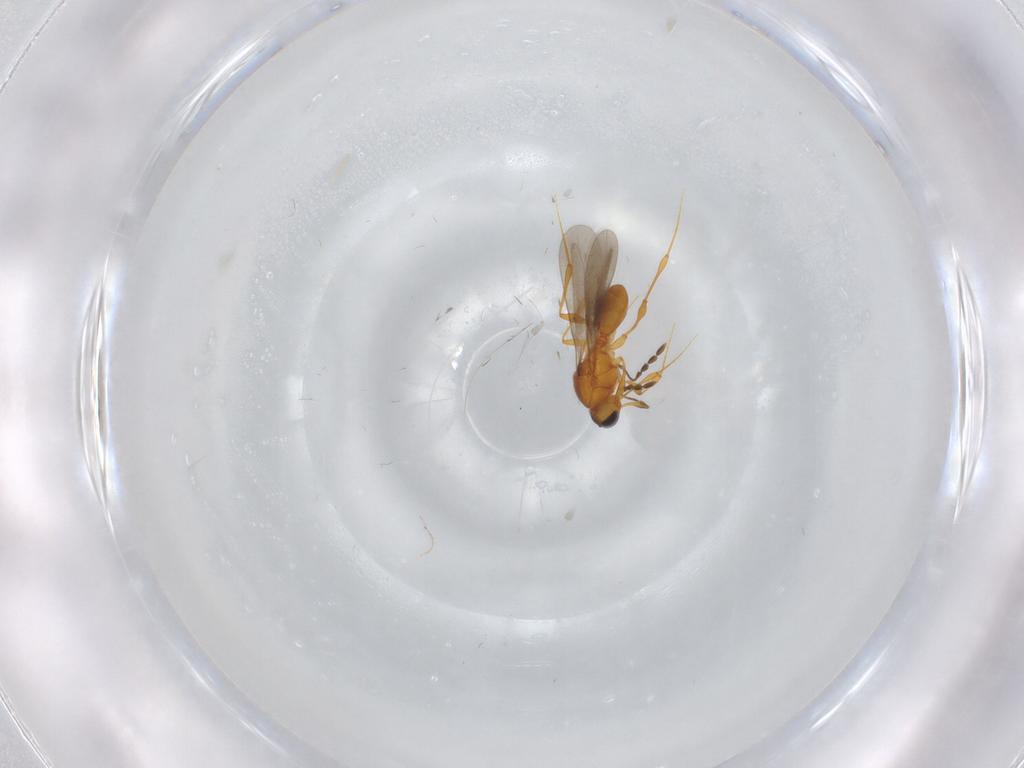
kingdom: Animalia
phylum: Arthropoda
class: Insecta
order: Hymenoptera
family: Platygastridae
